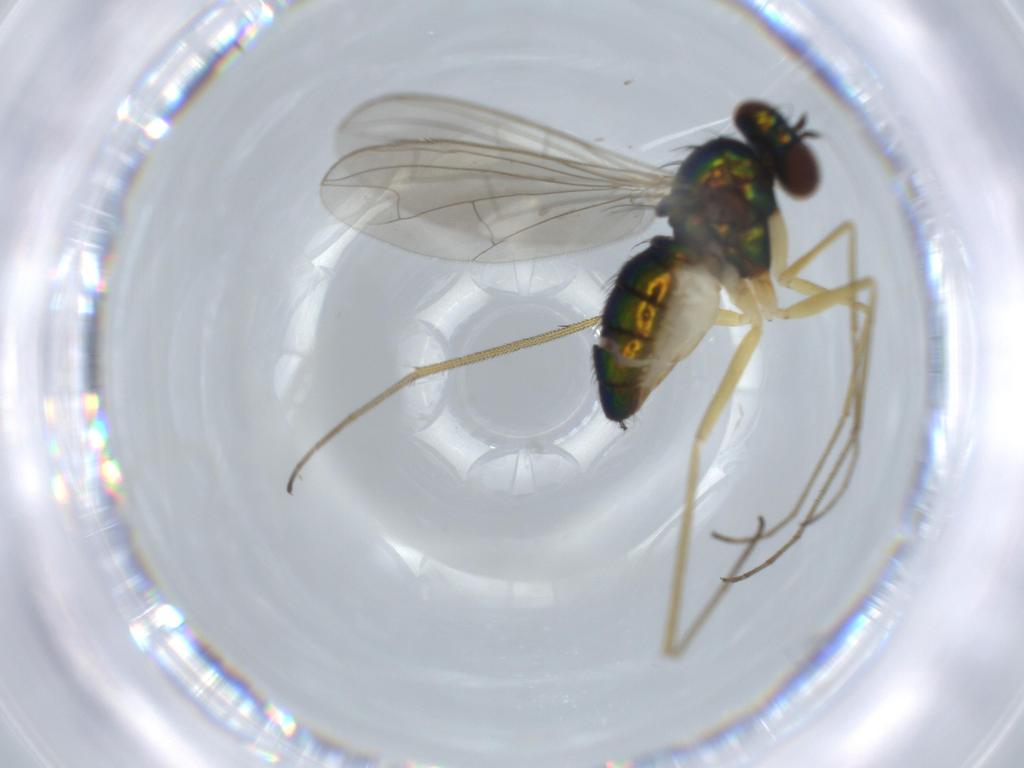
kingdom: Animalia
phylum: Arthropoda
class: Insecta
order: Diptera
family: Dolichopodidae
